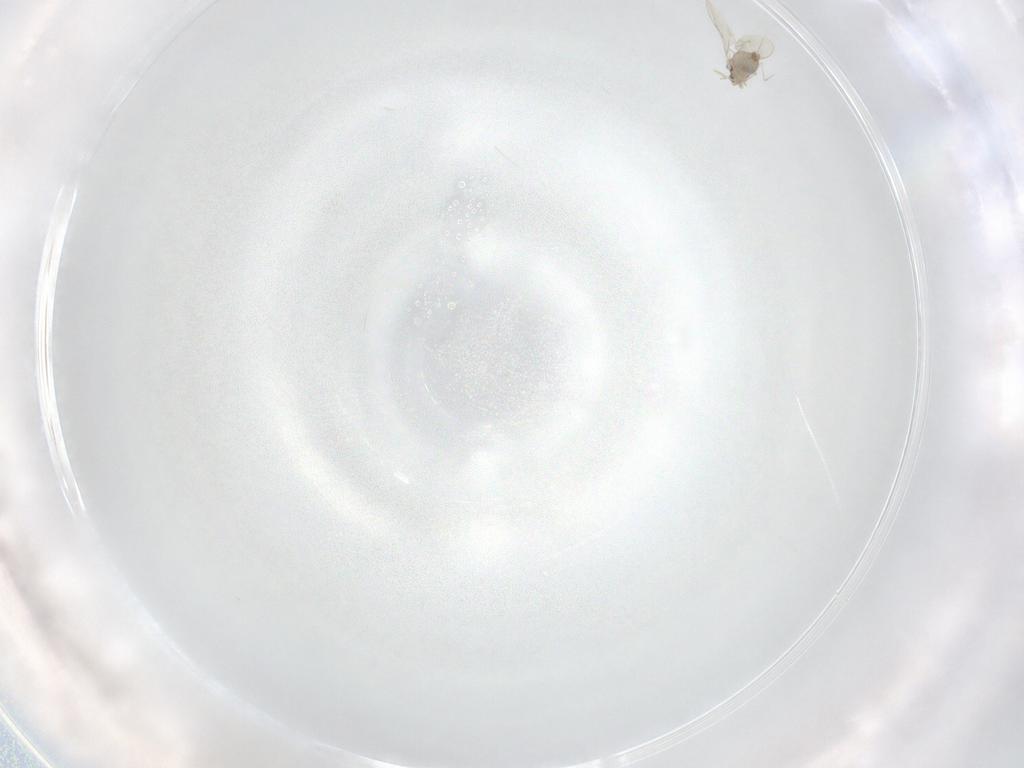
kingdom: Animalia
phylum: Arthropoda
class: Insecta
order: Diptera
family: Cecidomyiidae
